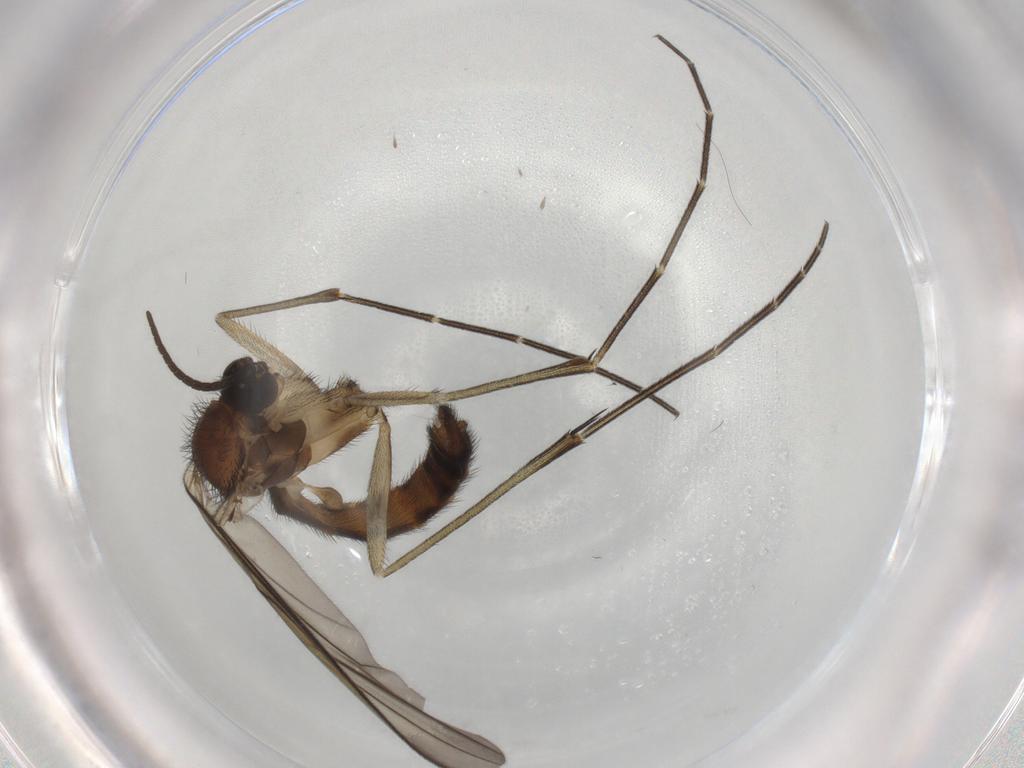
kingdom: Animalia
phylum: Arthropoda
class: Insecta
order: Diptera
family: Keroplatidae
